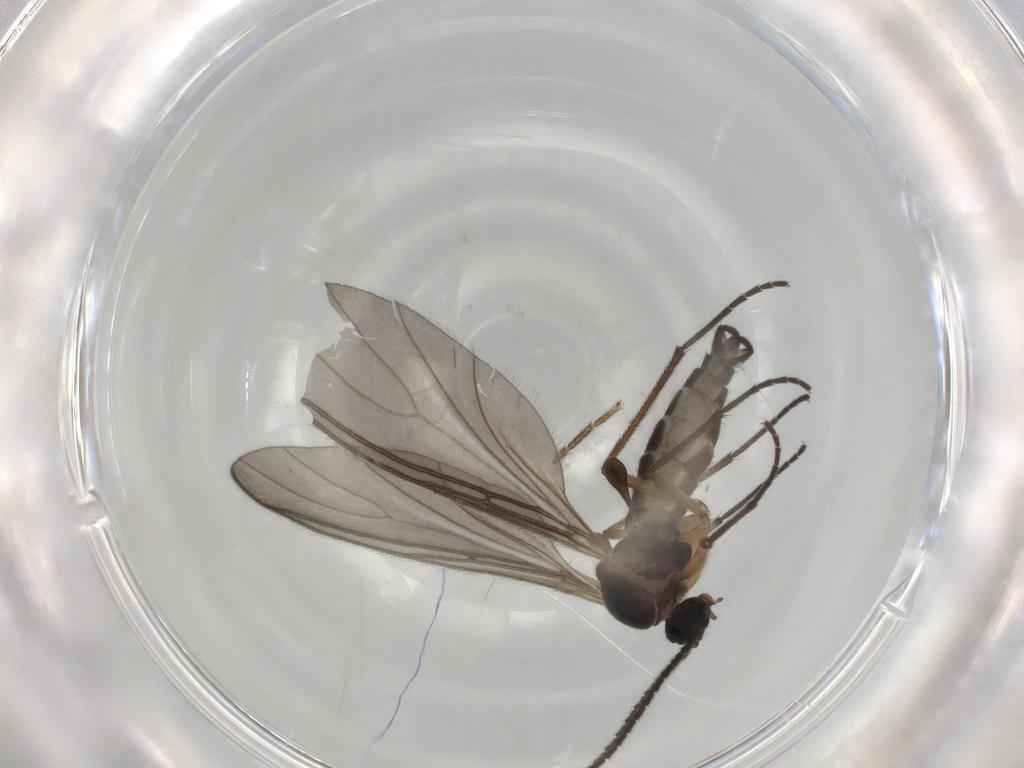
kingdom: Animalia
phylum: Arthropoda
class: Insecta
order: Diptera
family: Sciaridae
